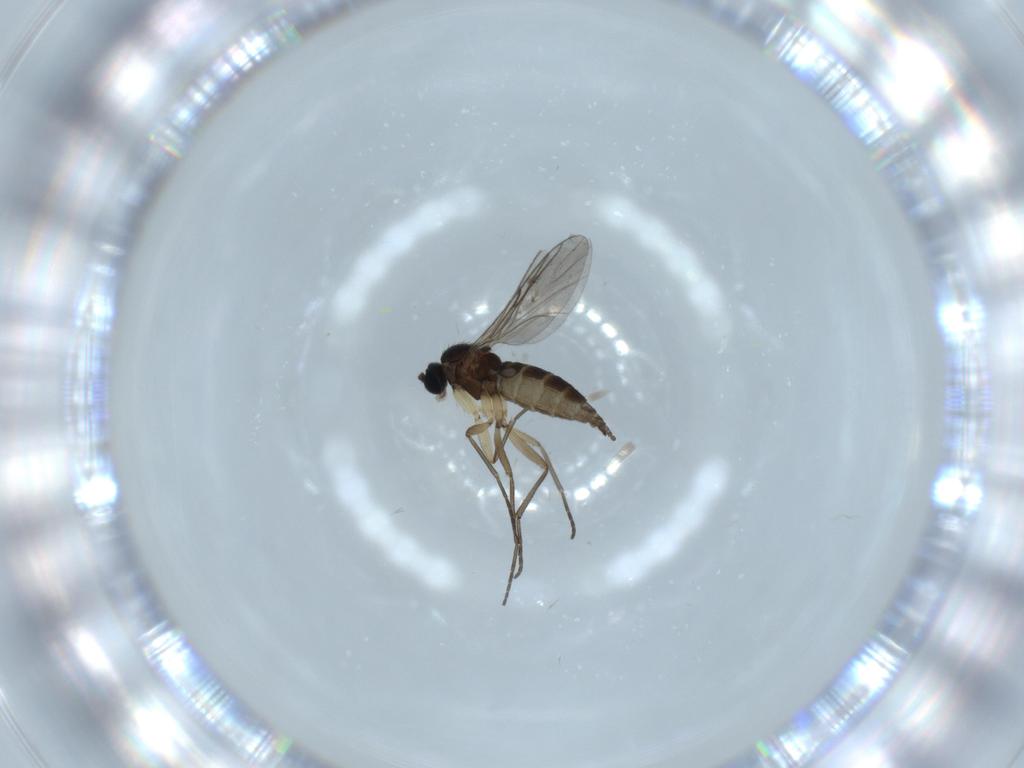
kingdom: Animalia
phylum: Arthropoda
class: Insecta
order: Diptera
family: Sciaridae
